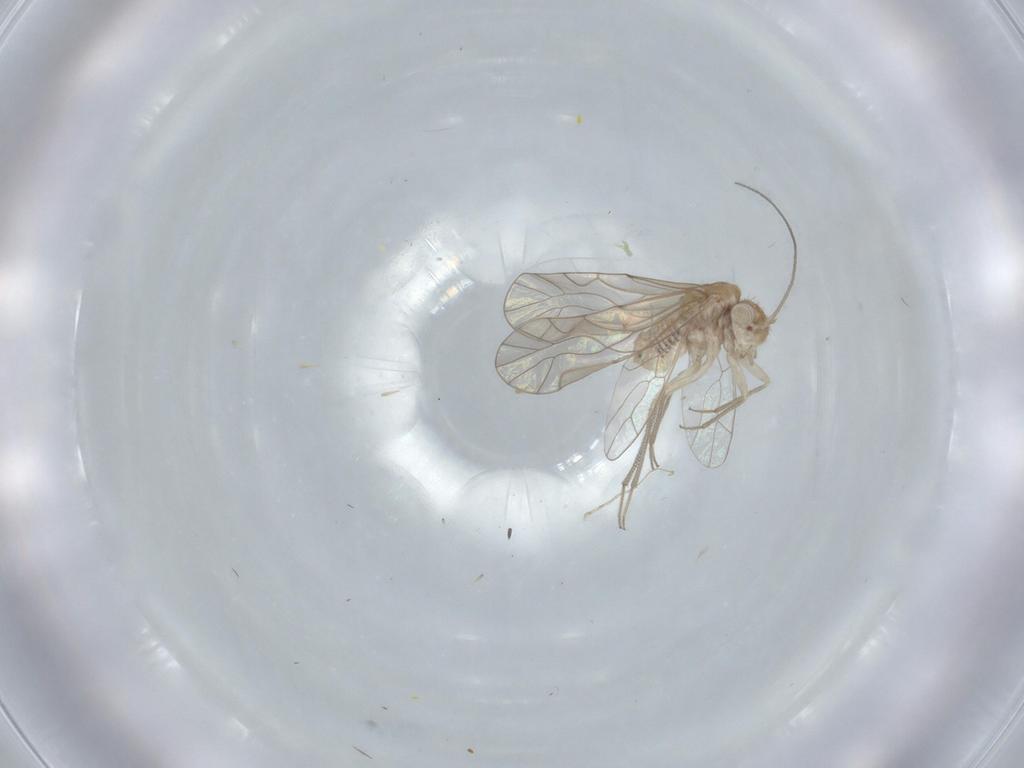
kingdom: Animalia
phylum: Arthropoda
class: Insecta
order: Psocodea
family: Lachesillidae
